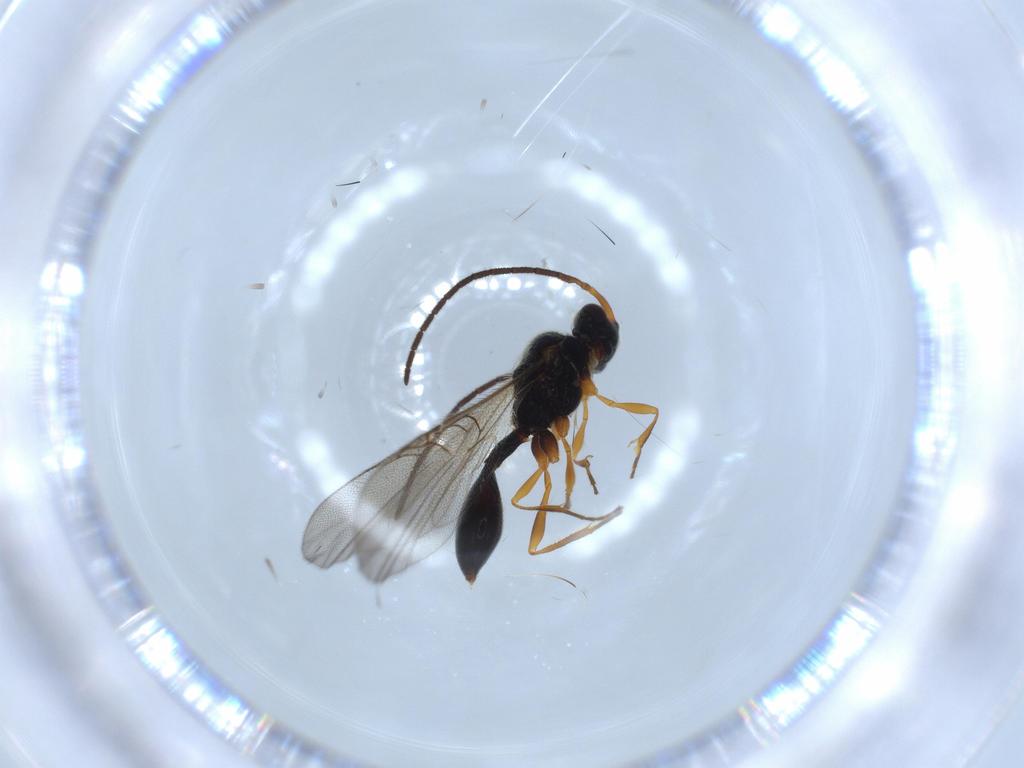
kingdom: Animalia
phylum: Arthropoda
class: Insecta
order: Hymenoptera
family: Diapriidae
